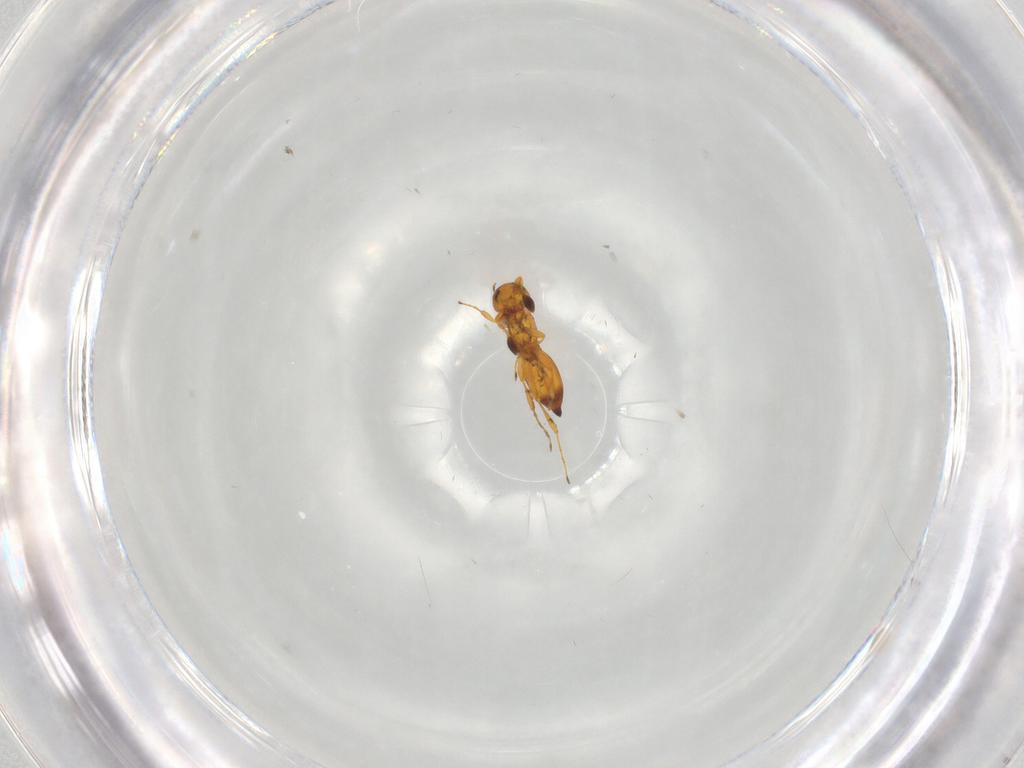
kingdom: Animalia
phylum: Arthropoda
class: Insecta
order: Hymenoptera
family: Platygastridae
